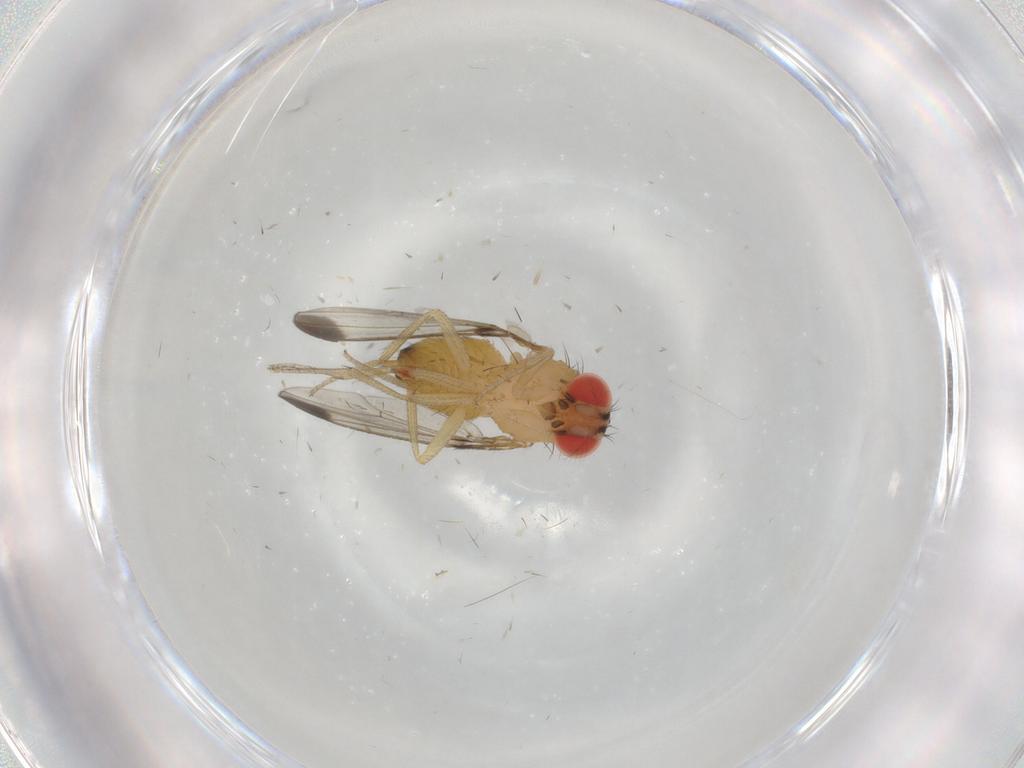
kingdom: Animalia
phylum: Arthropoda
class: Insecta
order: Diptera
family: Drosophilidae
